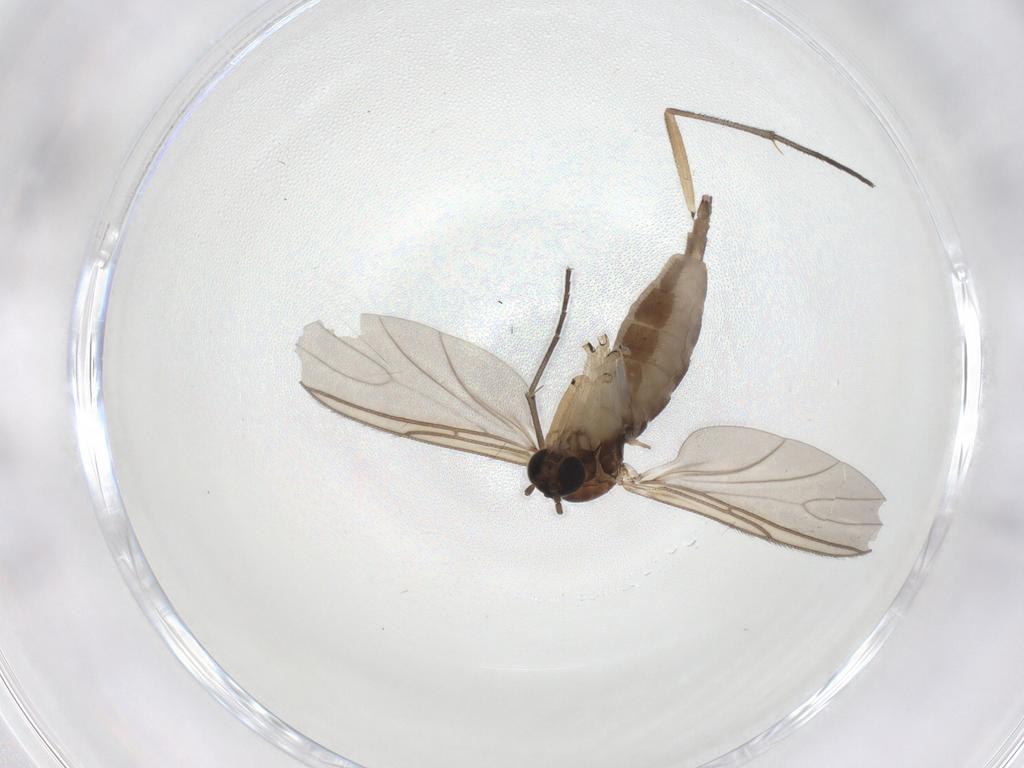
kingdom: Animalia
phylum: Arthropoda
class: Insecta
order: Diptera
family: Sciaridae
